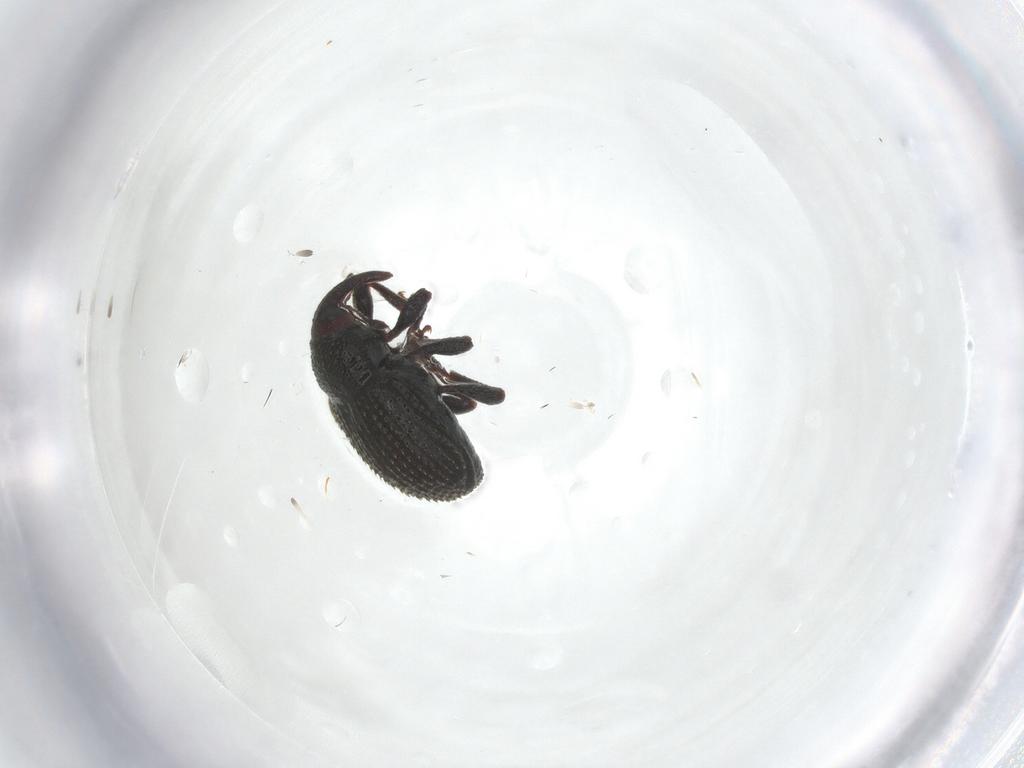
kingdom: Animalia
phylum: Arthropoda
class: Insecta
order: Coleoptera
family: Curculionidae
